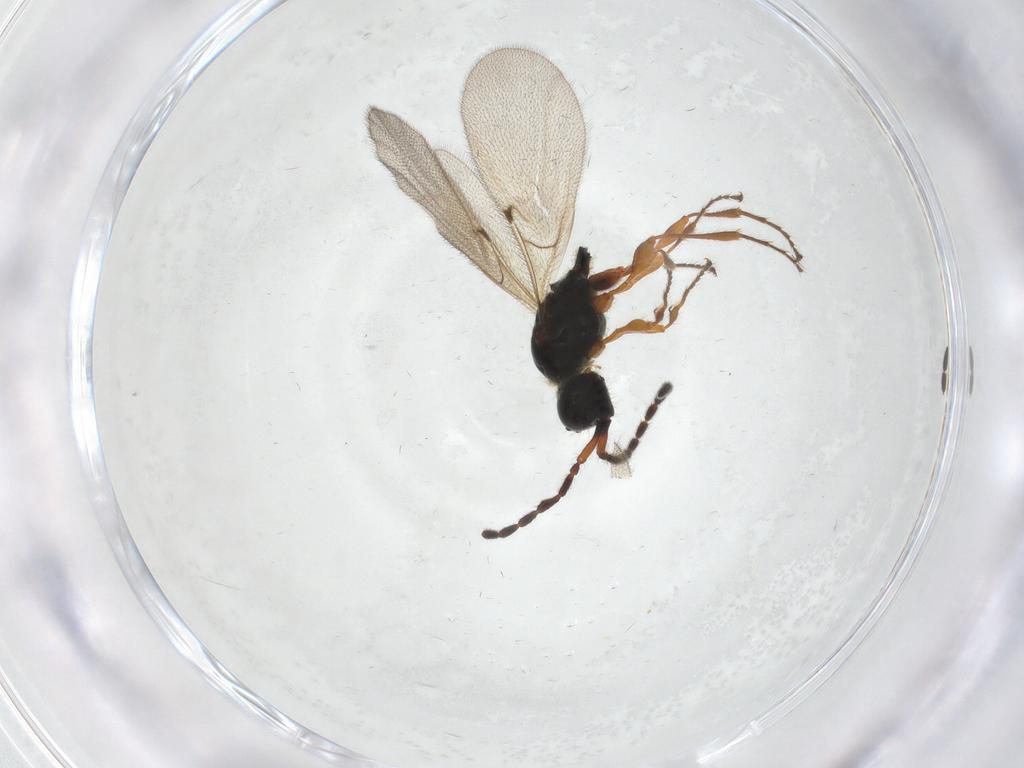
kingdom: Animalia
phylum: Arthropoda
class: Insecta
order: Hymenoptera
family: Diapriidae
